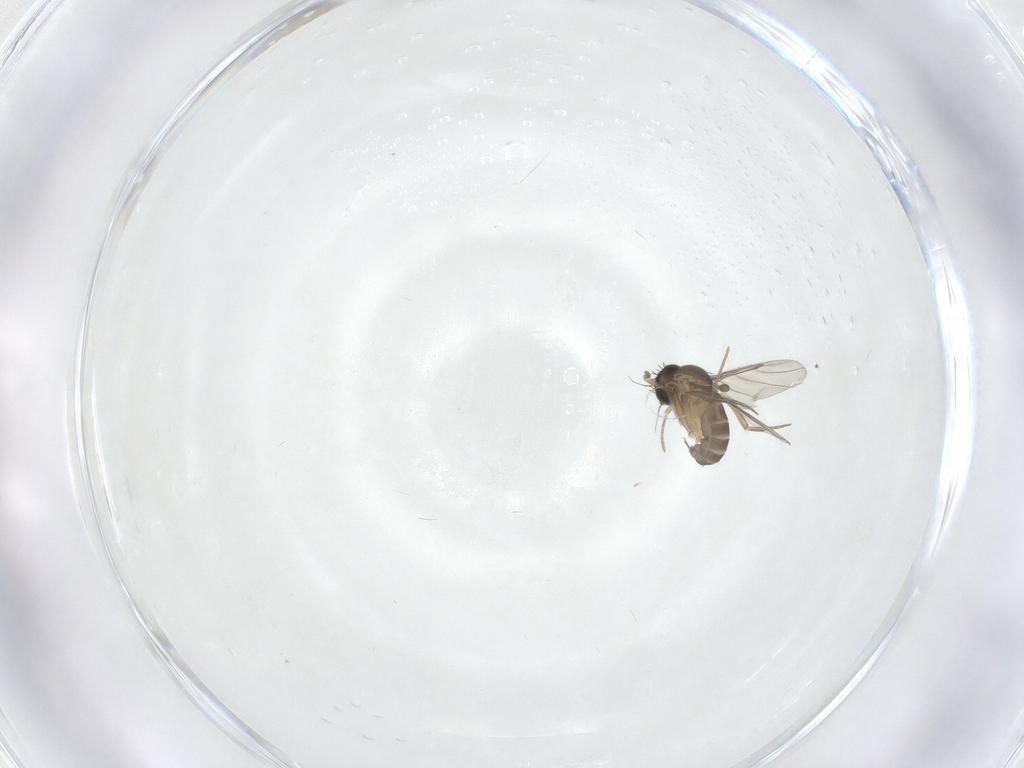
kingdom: Animalia
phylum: Arthropoda
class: Insecta
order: Diptera
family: Phoridae
